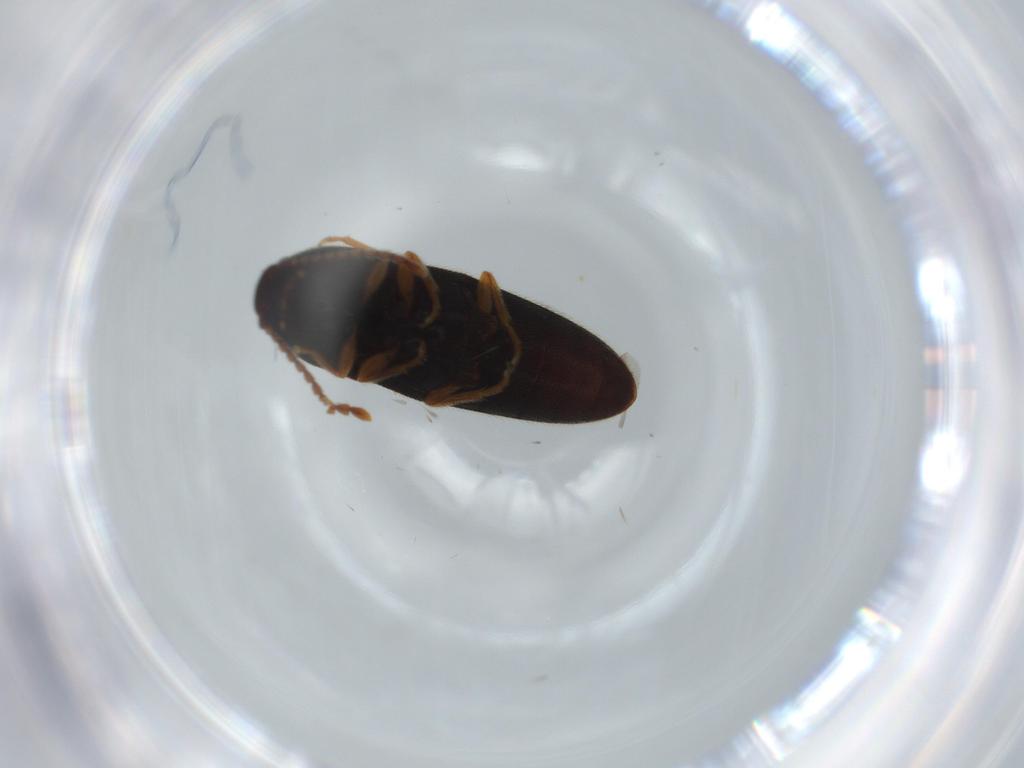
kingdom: Animalia
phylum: Arthropoda
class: Insecta
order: Coleoptera
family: Elateridae
